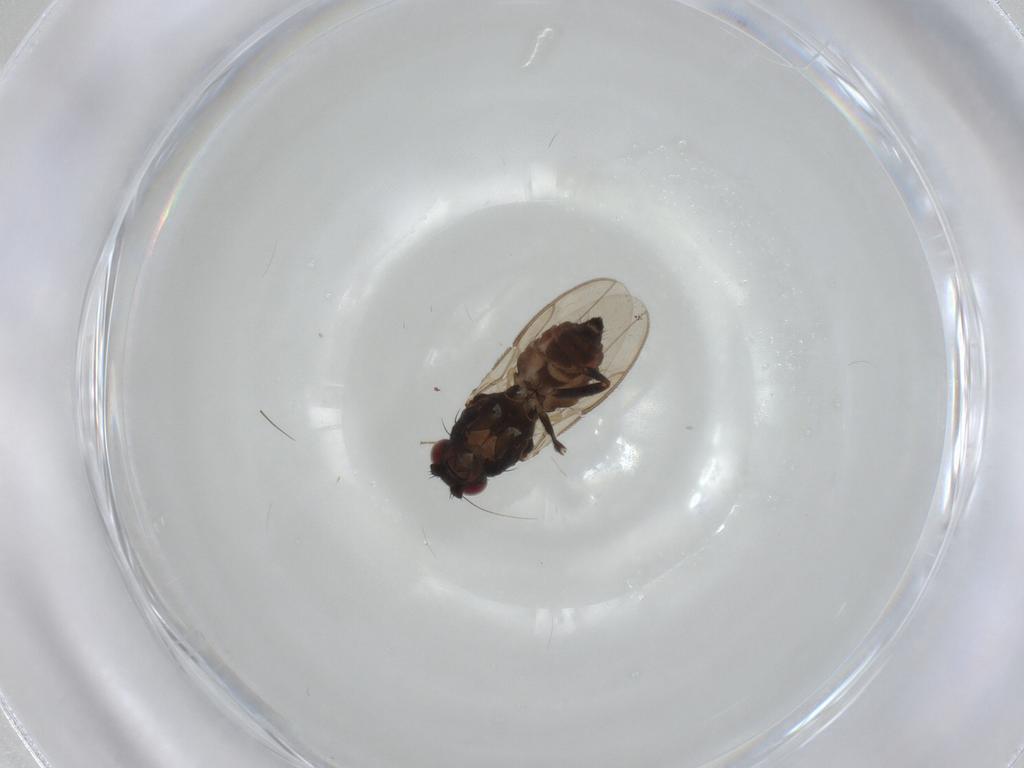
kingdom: Animalia
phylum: Arthropoda
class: Insecta
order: Diptera
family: Sphaeroceridae
